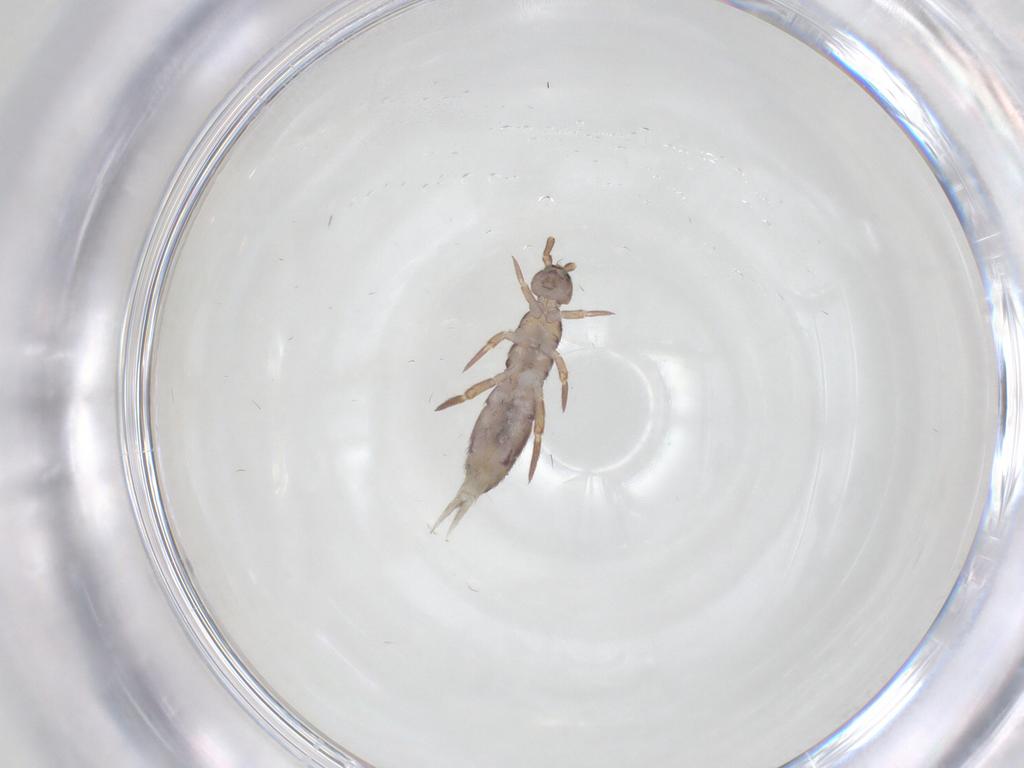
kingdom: Animalia
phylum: Arthropoda
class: Collembola
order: Entomobryomorpha
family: Isotomidae
